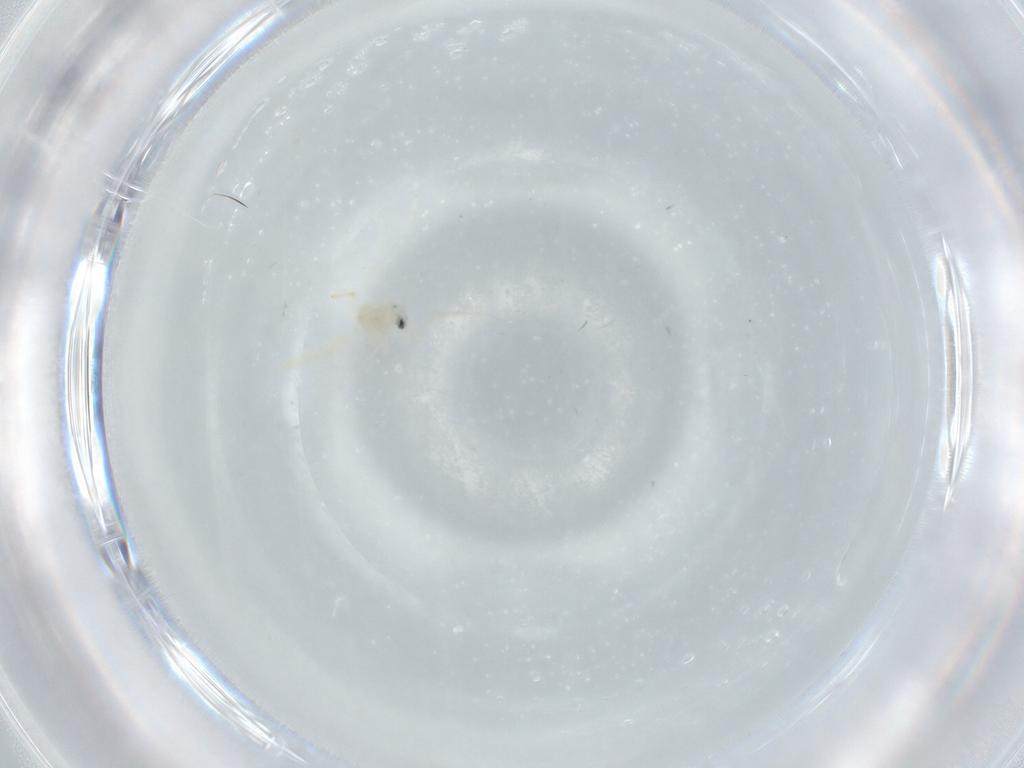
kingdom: Animalia
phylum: Arthropoda
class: Insecta
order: Diptera
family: Cecidomyiidae
